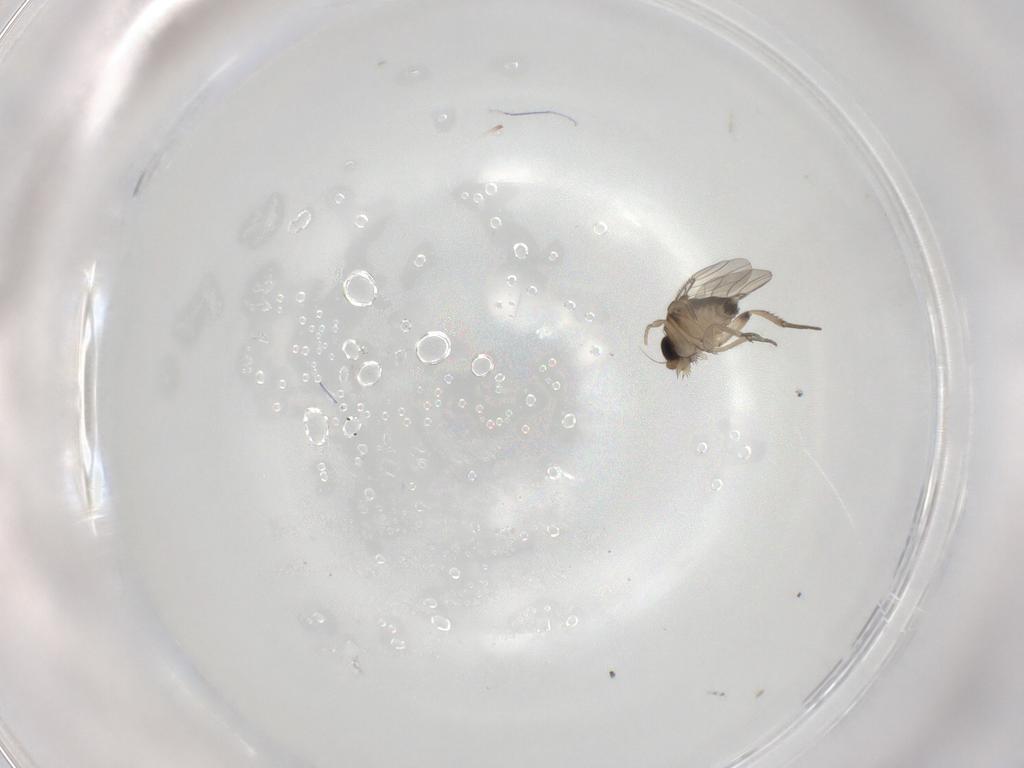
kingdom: Animalia
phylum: Arthropoda
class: Insecta
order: Diptera
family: Phoridae
